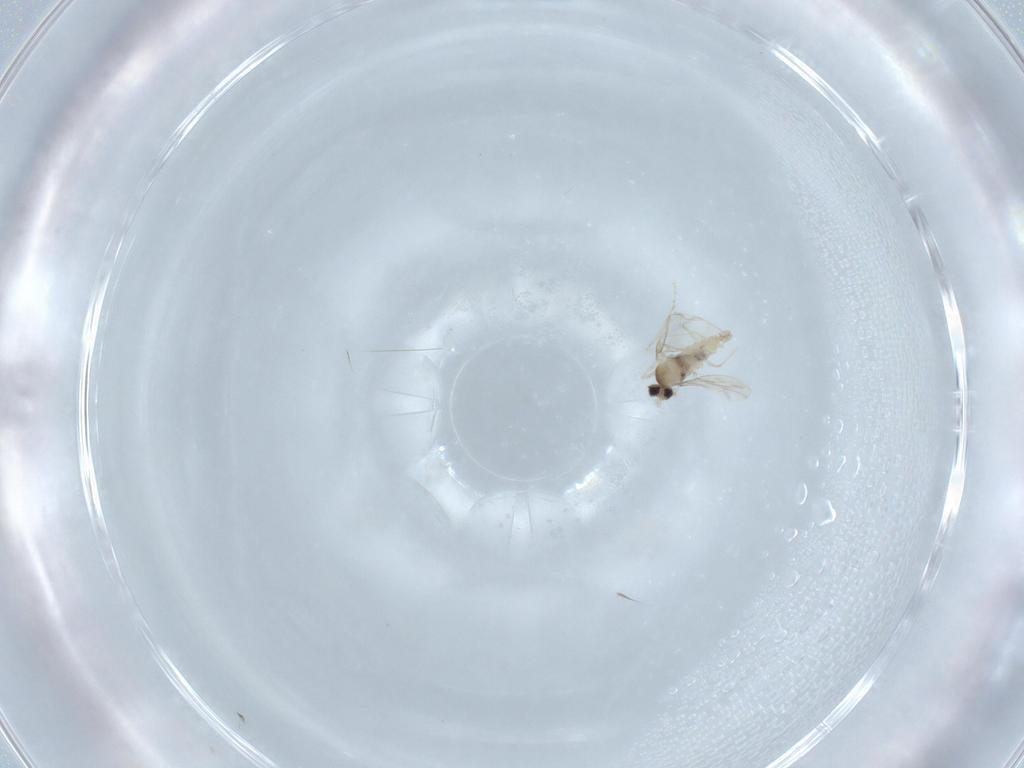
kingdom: Animalia
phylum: Arthropoda
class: Insecta
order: Diptera
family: Cecidomyiidae
